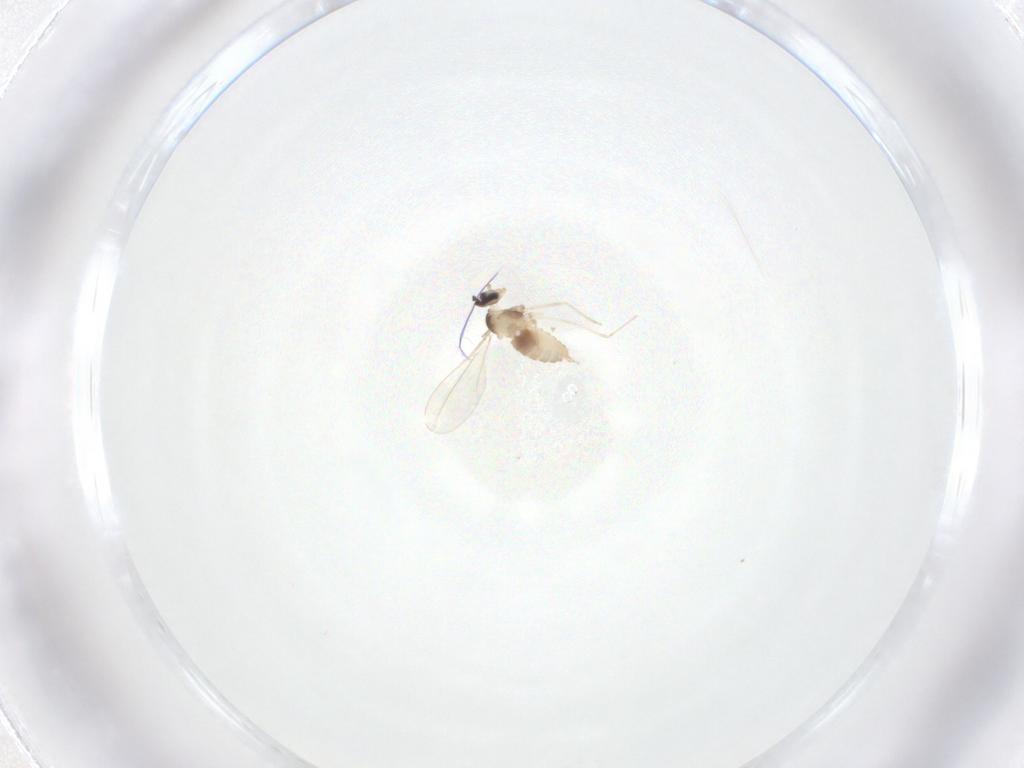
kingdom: Animalia
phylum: Arthropoda
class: Insecta
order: Diptera
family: Cecidomyiidae
